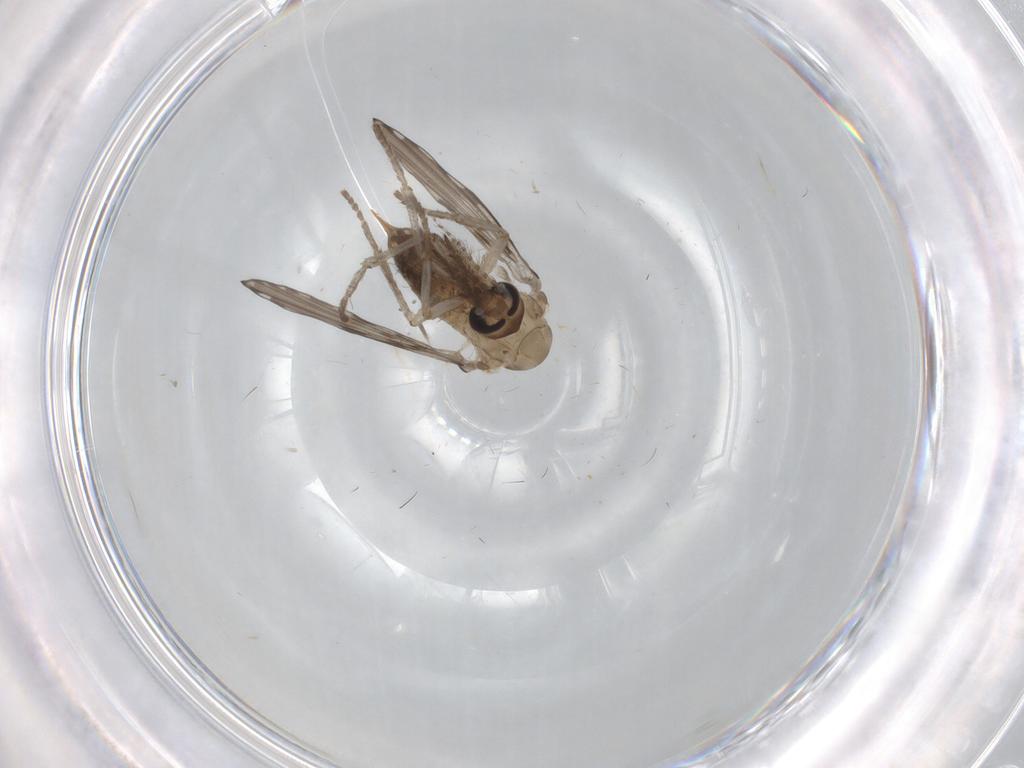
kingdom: Animalia
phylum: Arthropoda
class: Insecta
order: Diptera
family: Psychodidae
